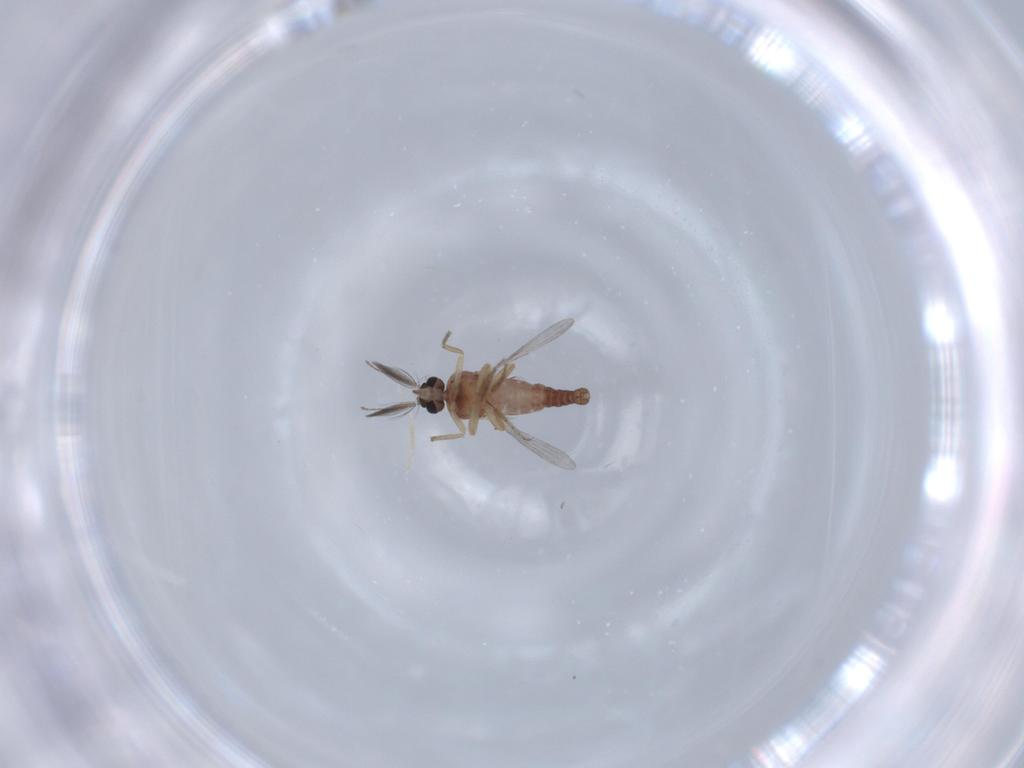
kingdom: Animalia
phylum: Arthropoda
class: Insecta
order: Diptera
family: Ceratopogonidae
